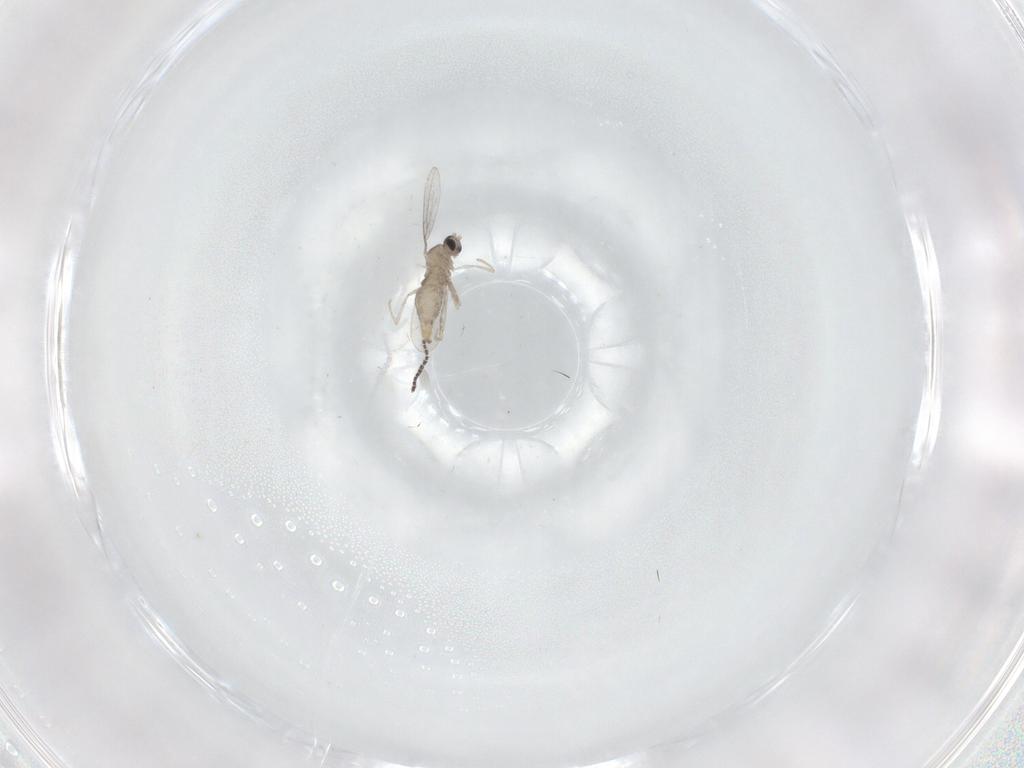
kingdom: Animalia
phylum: Arthropoda
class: Insecta
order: Diptera
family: Cecidomyiidae
